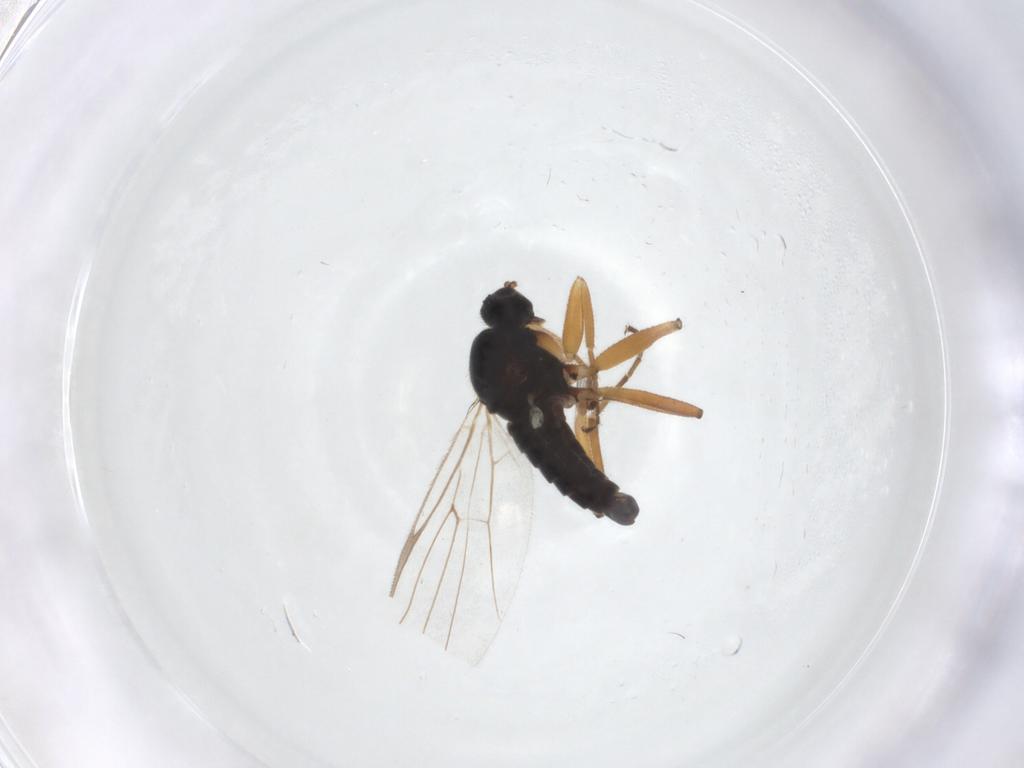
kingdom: Animalia
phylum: Arthropoda
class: Insecta
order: Diptera
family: Hybotidae
